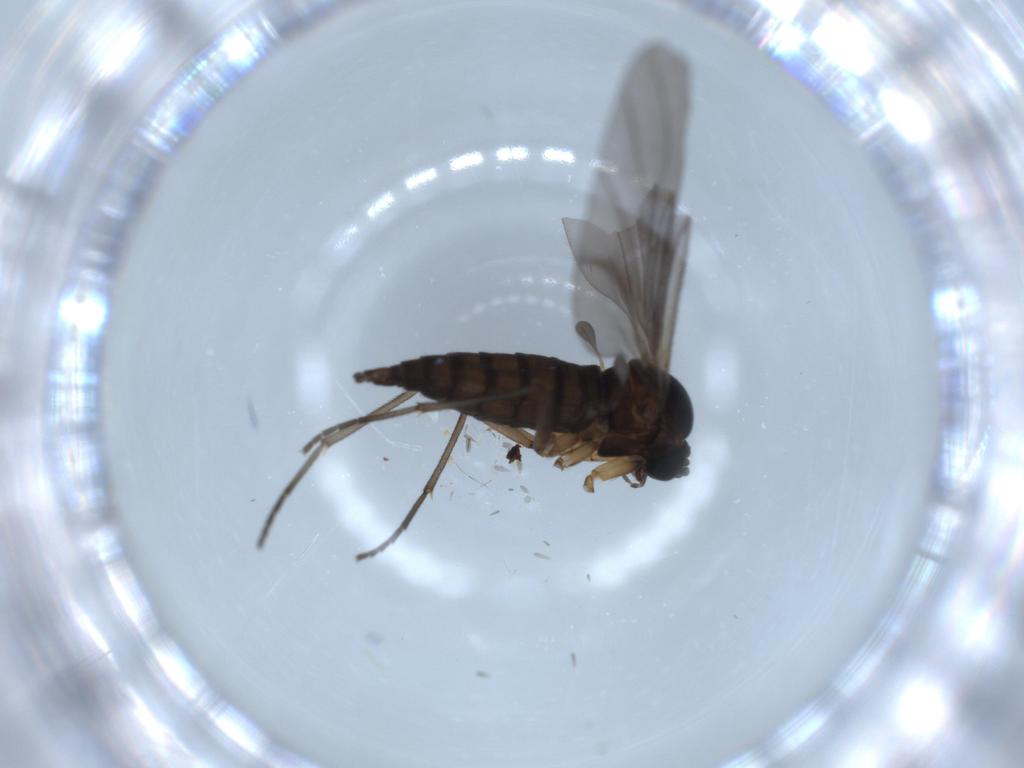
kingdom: Animalia
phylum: Arthropoda
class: Insecta
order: Diptera
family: Sciaridae
